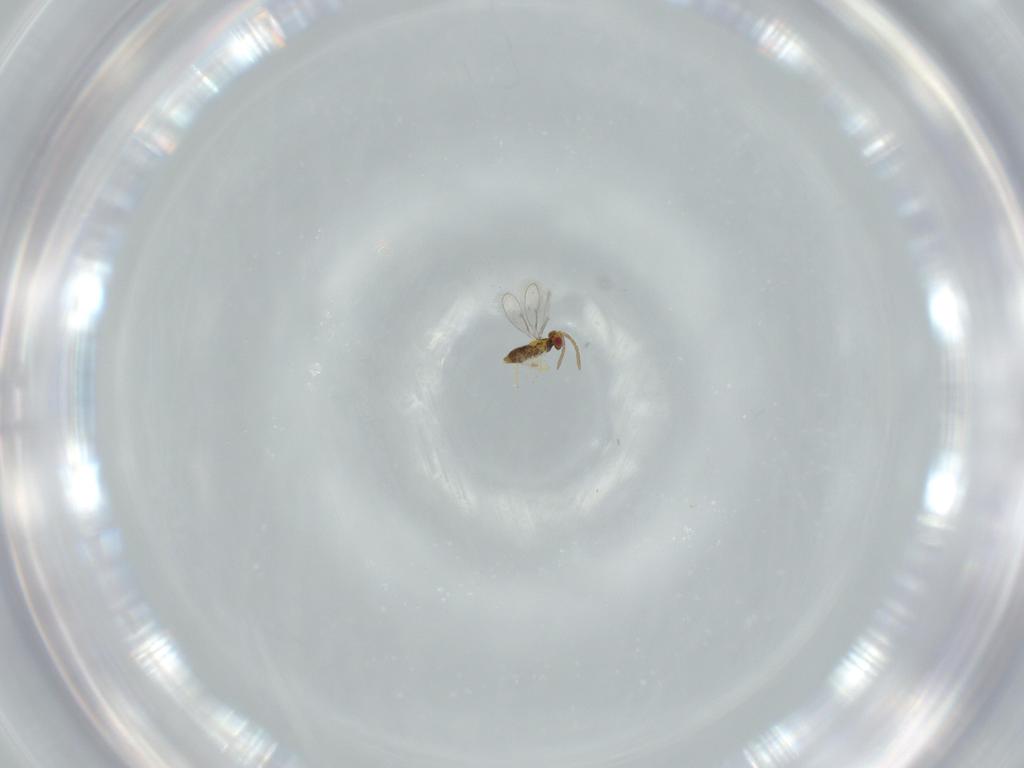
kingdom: Animalia
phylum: Arthropoda
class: Insecta
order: Hymenoptera
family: Aphelinidae
